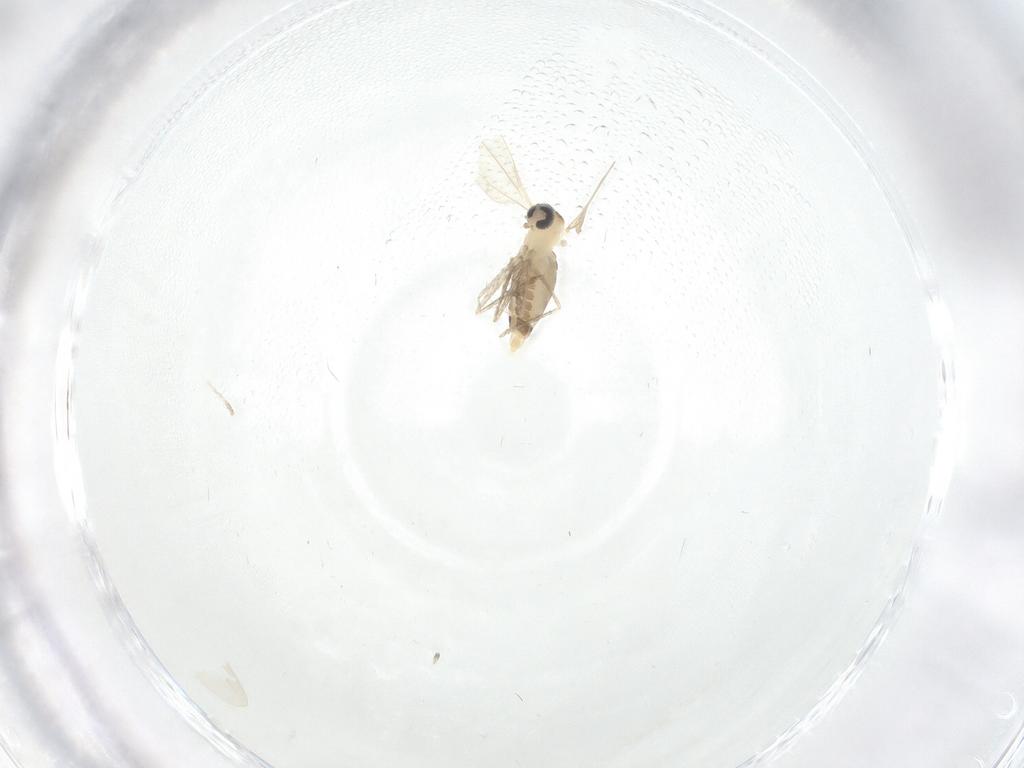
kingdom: Animalia
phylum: Arthropoda
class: Insecta
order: Diptera
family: Cecidomyiidae
